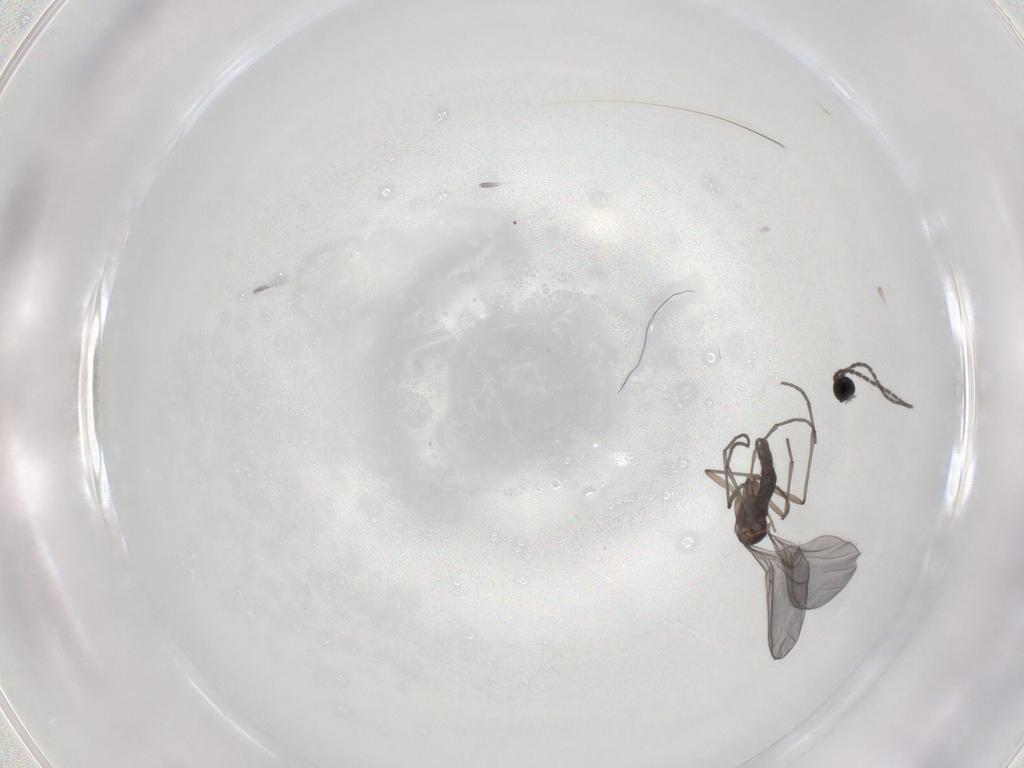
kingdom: Animalia
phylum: Arthropoda
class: Insecta
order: Diptera
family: Sciaridae
